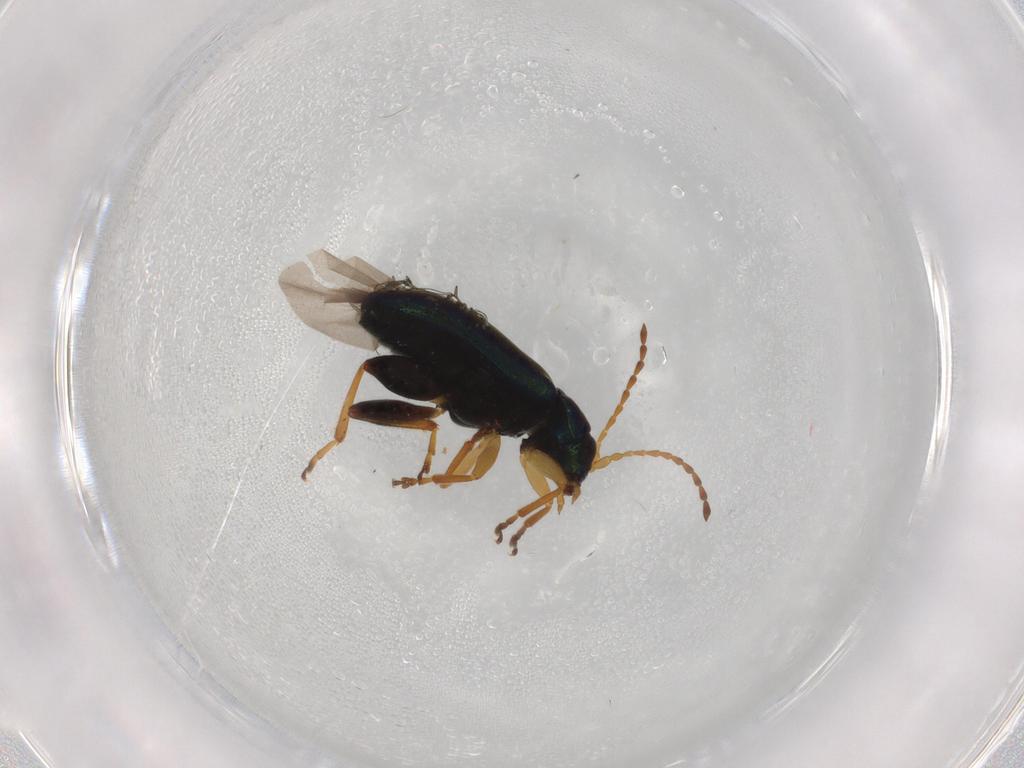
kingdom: Animalia
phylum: Arthropoda
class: Insecta
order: Coleoptera
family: Chrysomelidae
